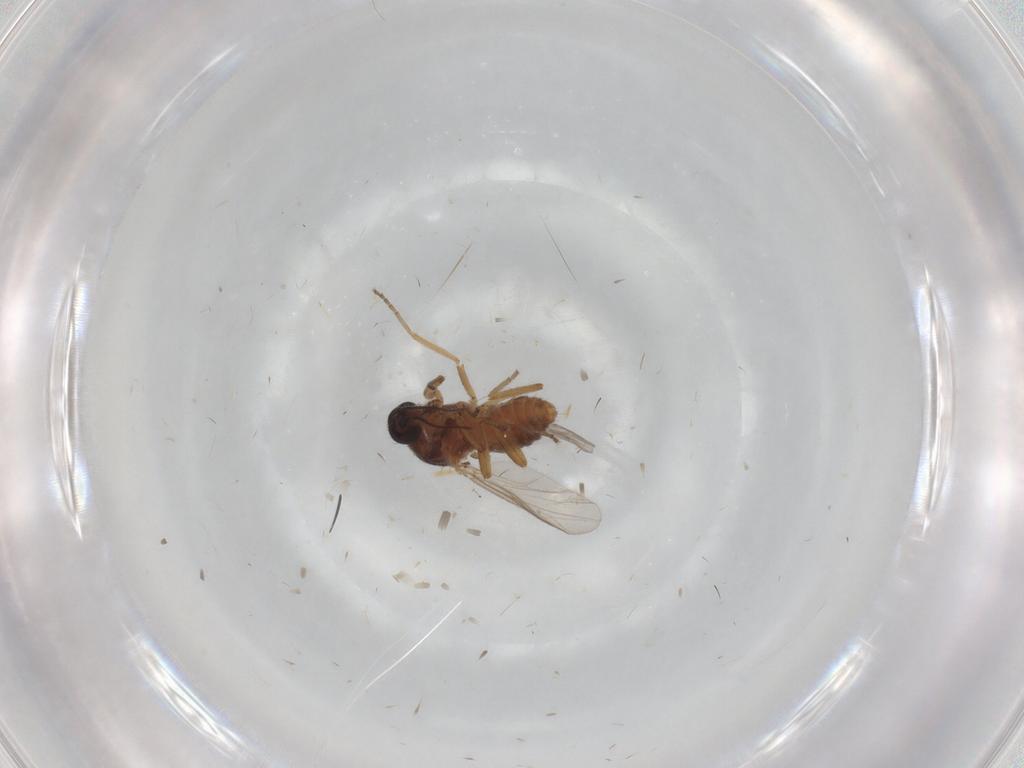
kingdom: Animalia
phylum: Arthropoda
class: Insecta
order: Diptera
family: Ceratopogonidae
